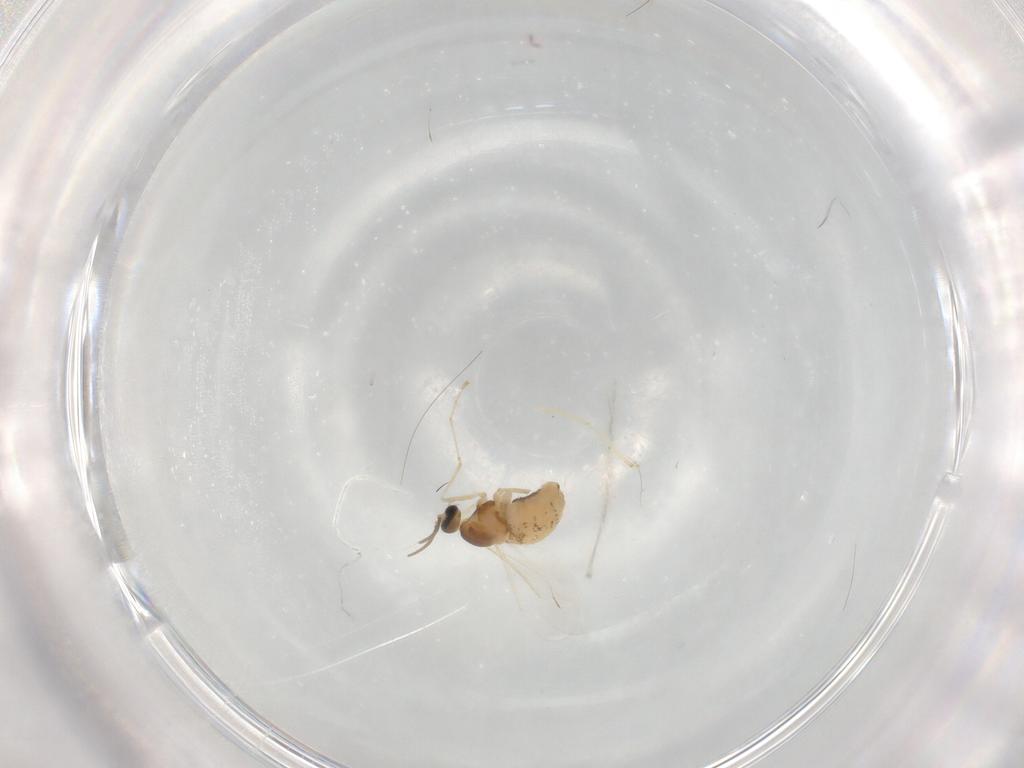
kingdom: Animalia
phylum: Arthropoda
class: Insecta
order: Diptera
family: Cecidomyiidae
